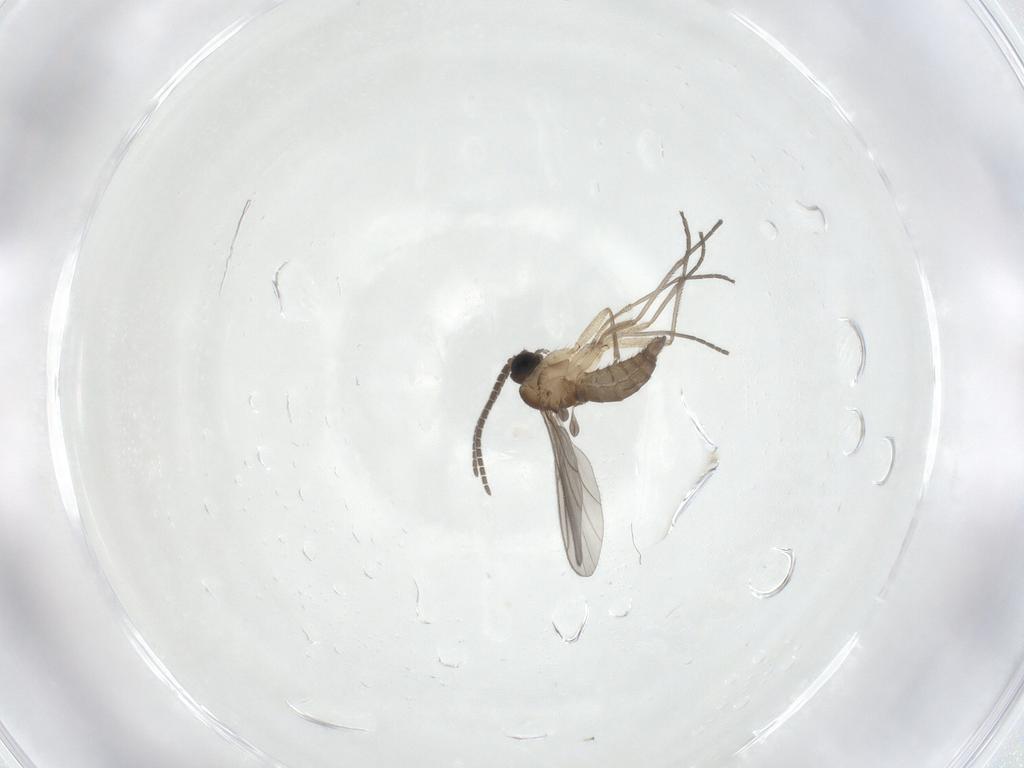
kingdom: Animalia
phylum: Arthropoda
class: Insecta
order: Diptera
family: Sciaridae
